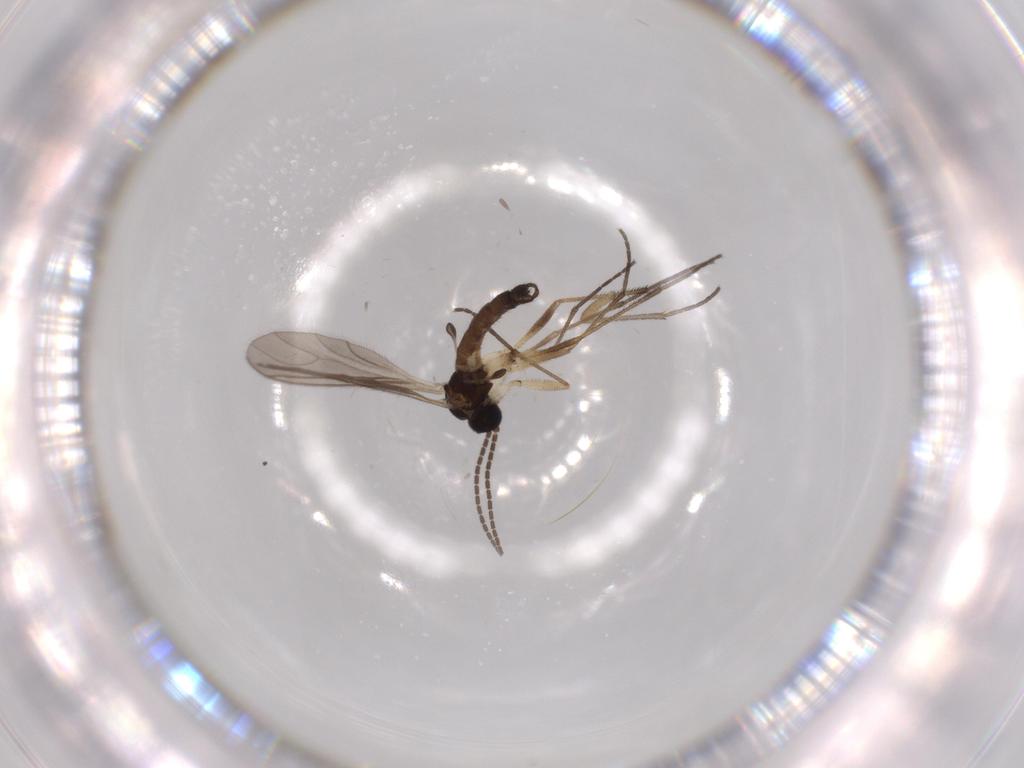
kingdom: Animalia
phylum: Arthropoda
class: Insecta
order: Diptera
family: Sciaridae
